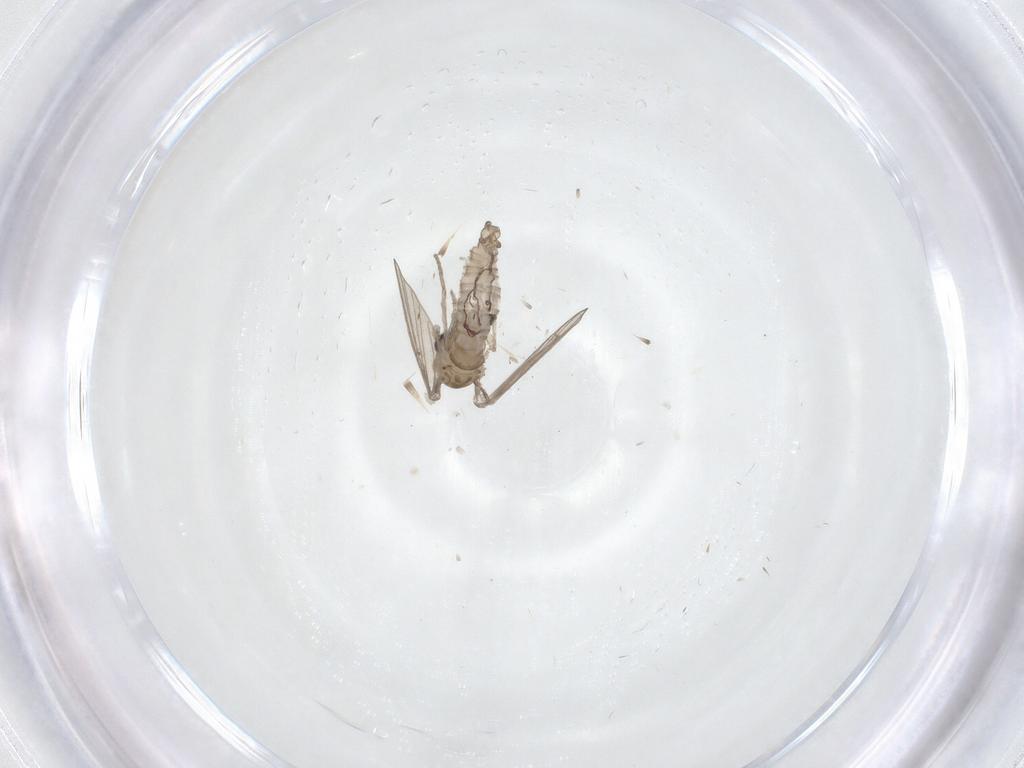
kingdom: Animalia
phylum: Arthropoda
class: Insecta
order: Diptera
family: Psychodidae
